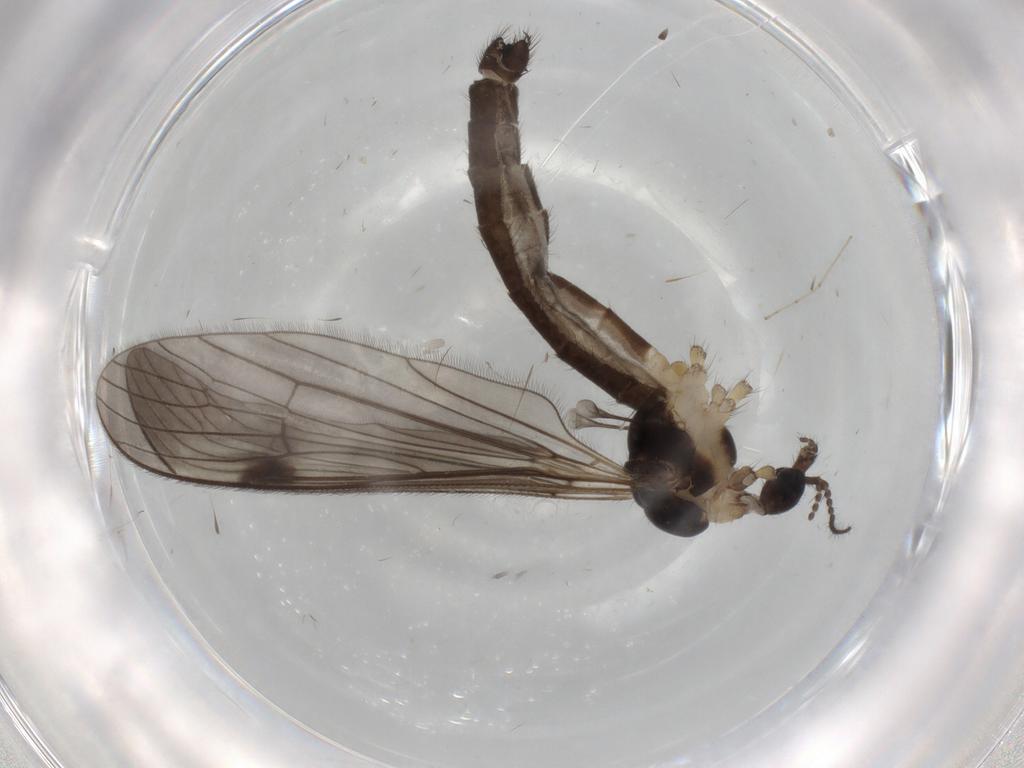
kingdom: Animalia
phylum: Arthropoda
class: Insecta
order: Diptera
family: Limoniidae
